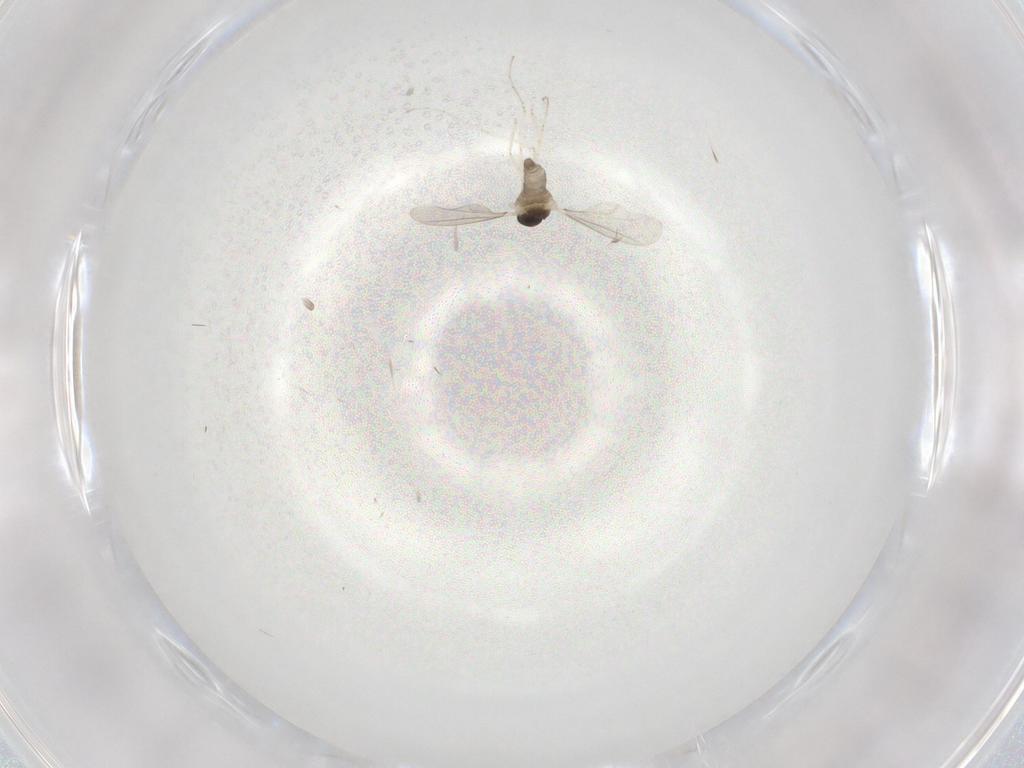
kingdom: Animalia
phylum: Arthropoda
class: Insecta
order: Diptera
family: Cecidomyiidae
